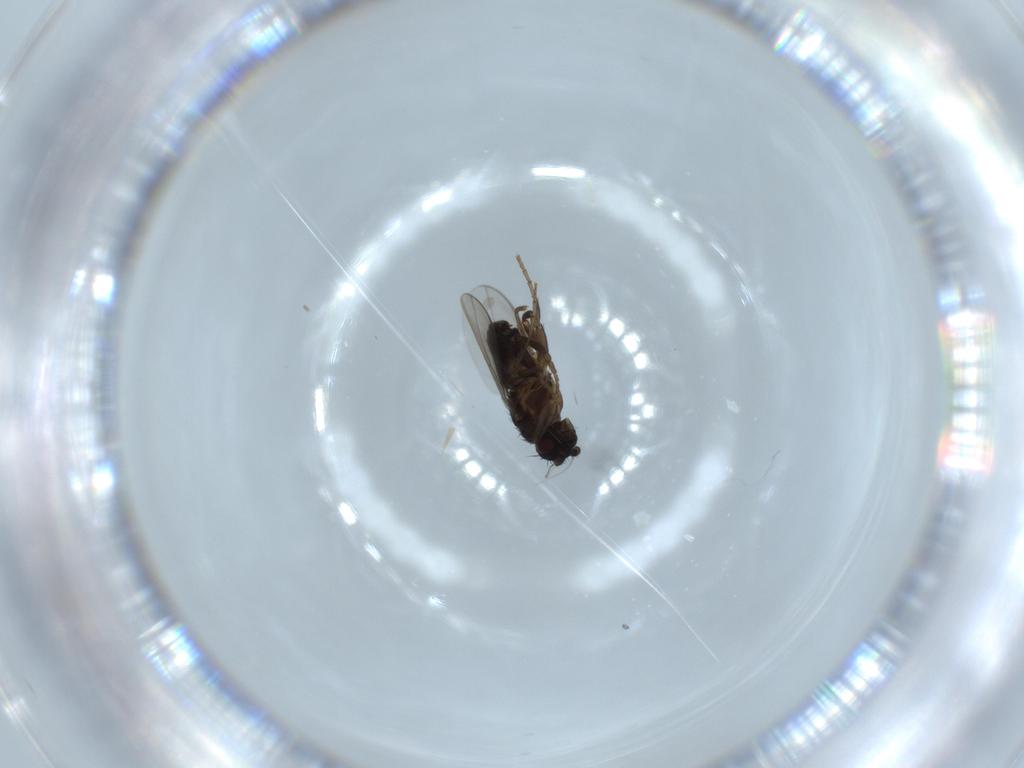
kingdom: Animalia
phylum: Arthropoda
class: Insecta
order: Diptera
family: Sphaeroceridae
